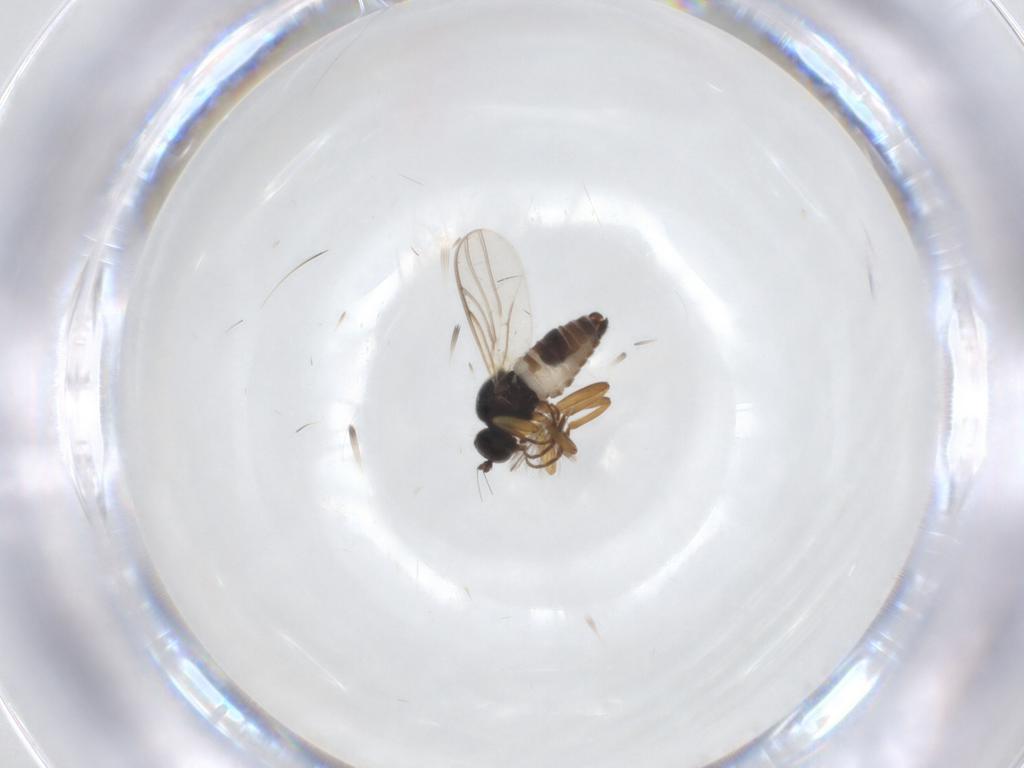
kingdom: Animalia
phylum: Arthropoda
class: Insecta
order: Diptera
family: Hybotidae
